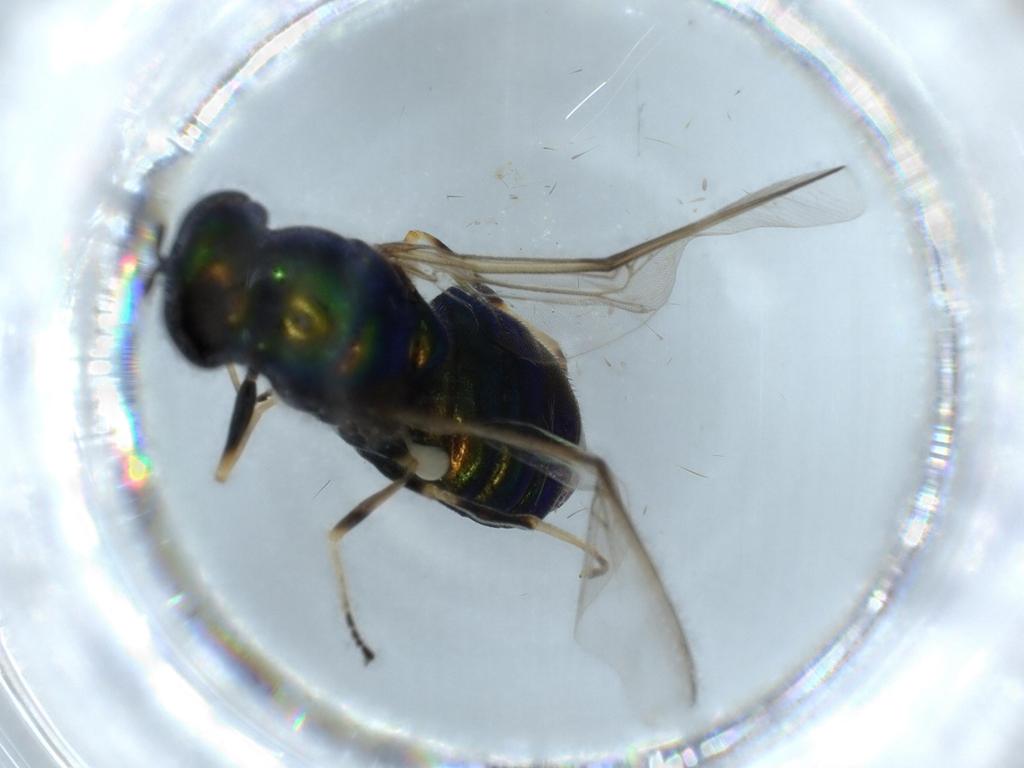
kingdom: Animalia
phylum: Arthropoda
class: Insecta
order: Diptera
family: Stratiomyidae
